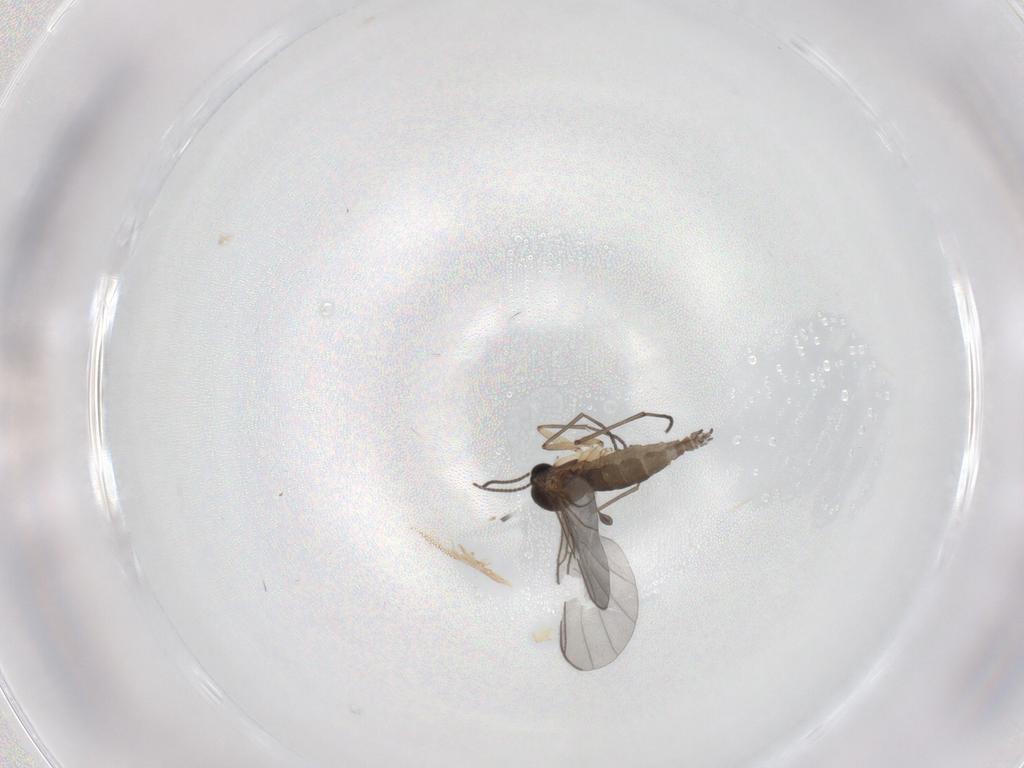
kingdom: Animalia
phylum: Arthropoda
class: Insecta
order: Diptera
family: Sciaridae
